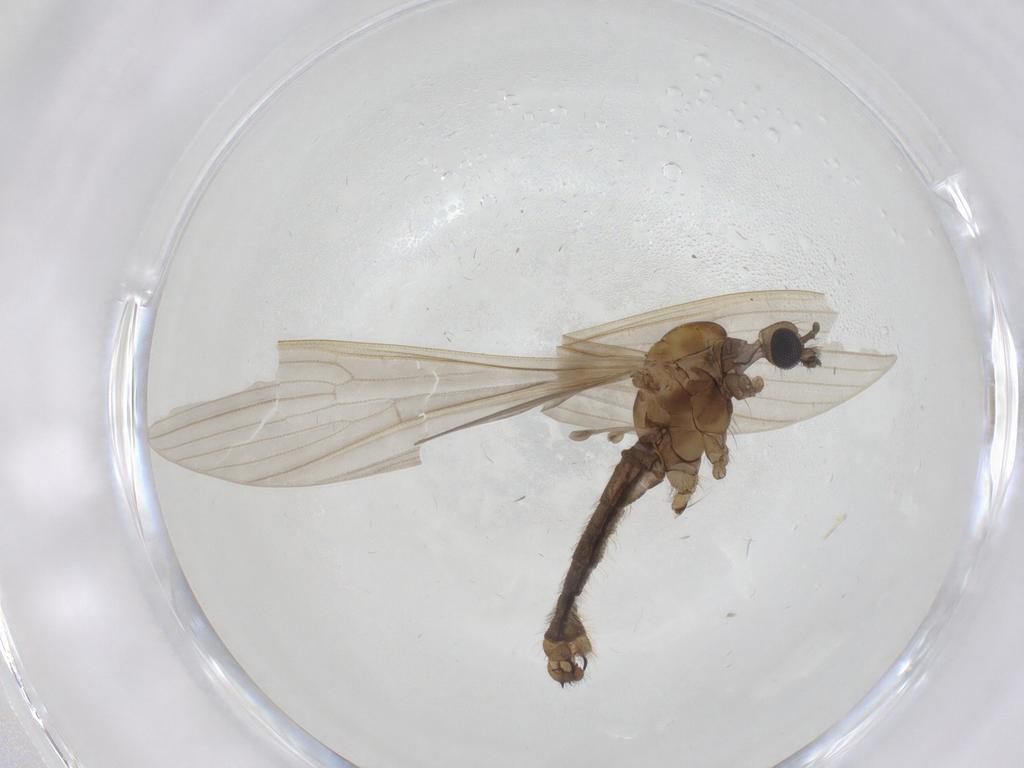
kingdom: Animalia
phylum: Arthropoda
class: Insecta
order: Diptera
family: Limoniidae
